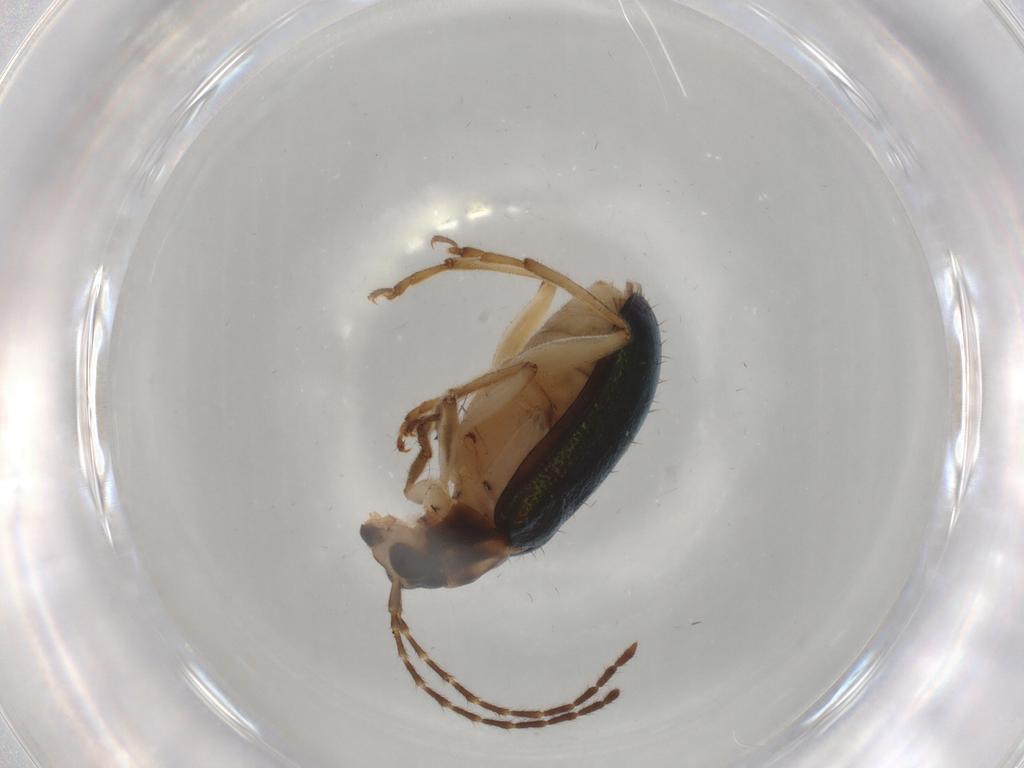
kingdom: Animalia
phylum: Arthropoda
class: Insecta
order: Coleoptera
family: Chrysomelidae
